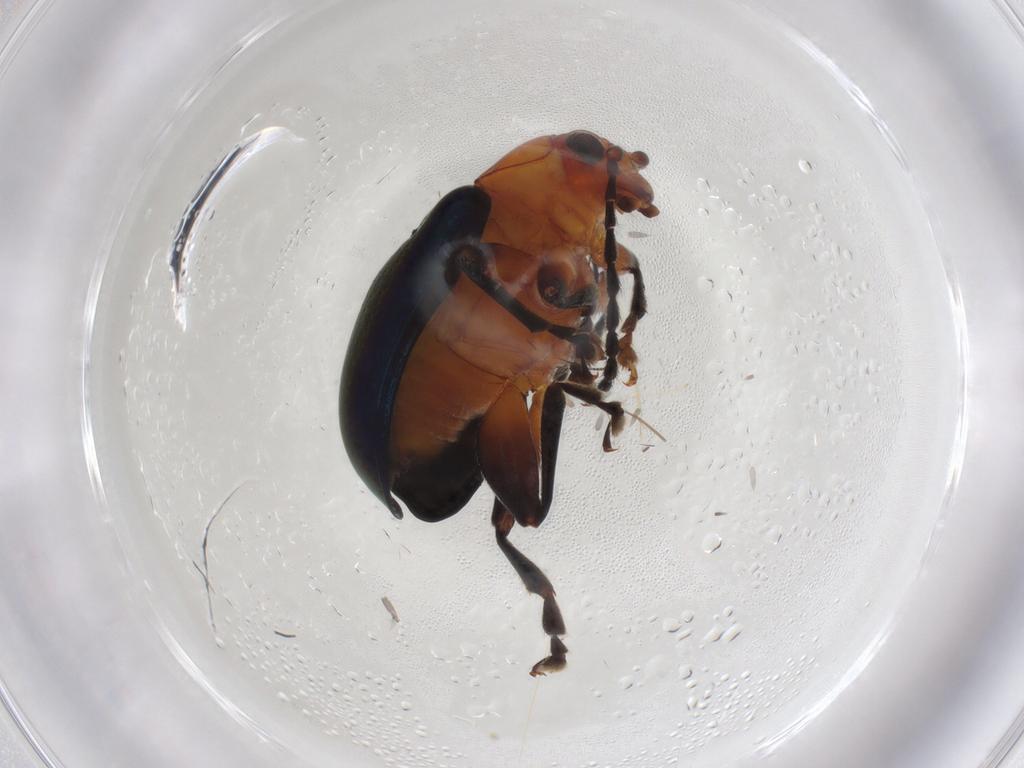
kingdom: Animalia
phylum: Arthropoda
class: Insecta
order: Coleoptera
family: Chrysomelidae
